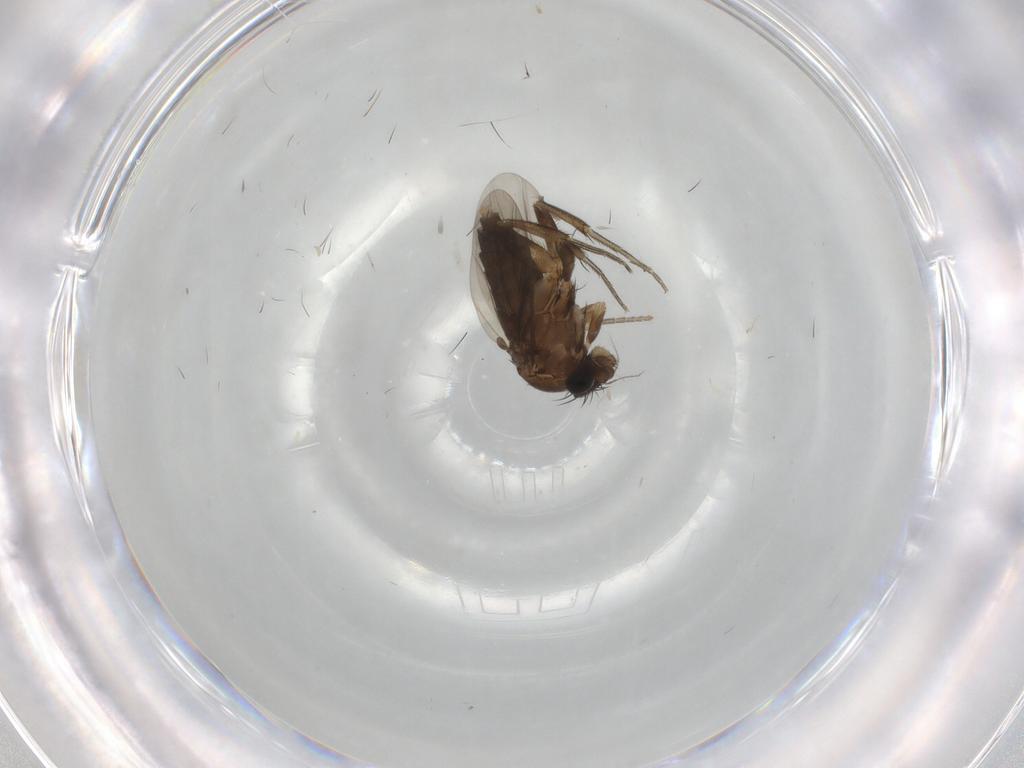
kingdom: Animalia
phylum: Arthropoda
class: Insecta
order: Diptera
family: Phoridae
